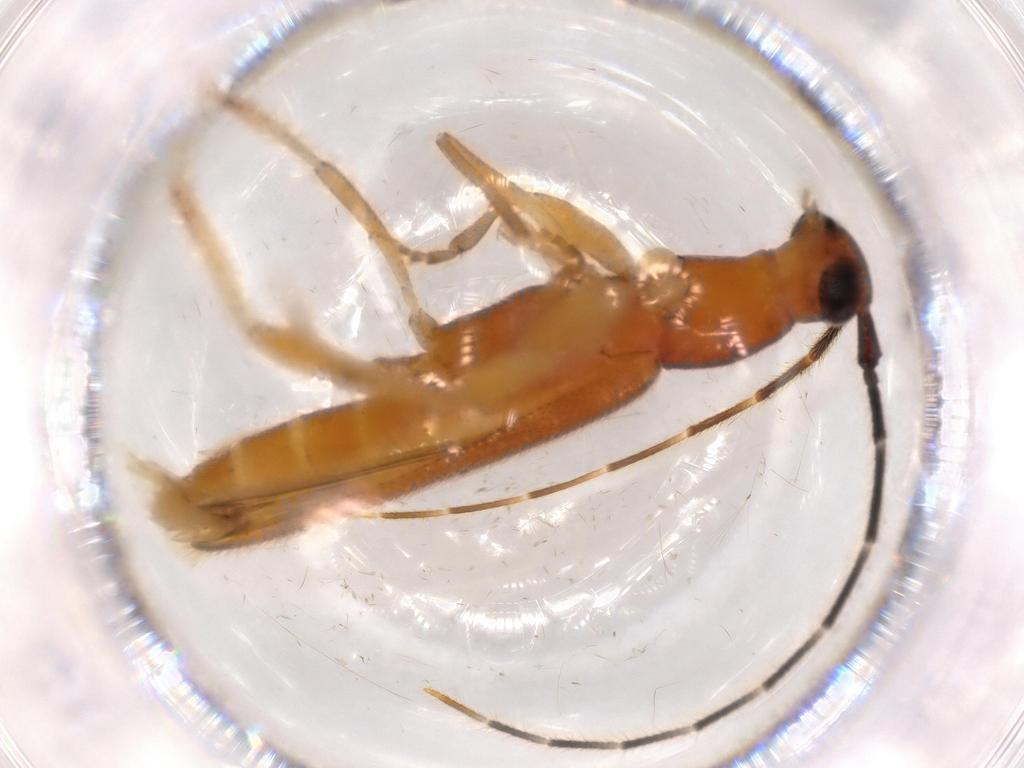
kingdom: Animalia
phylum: Arthropoda
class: Insecta
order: Coleoptera
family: Cerambycidae
